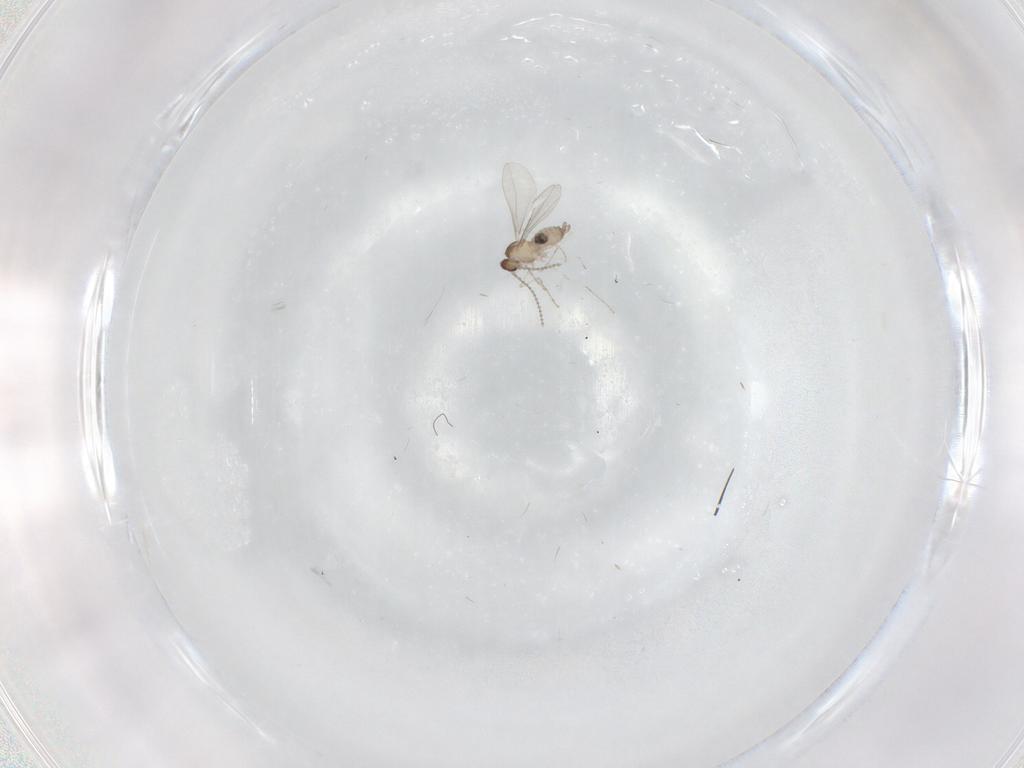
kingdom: Animalia
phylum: Arthropoda
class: Insecta
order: Diptera
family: Cecidomyiidae
